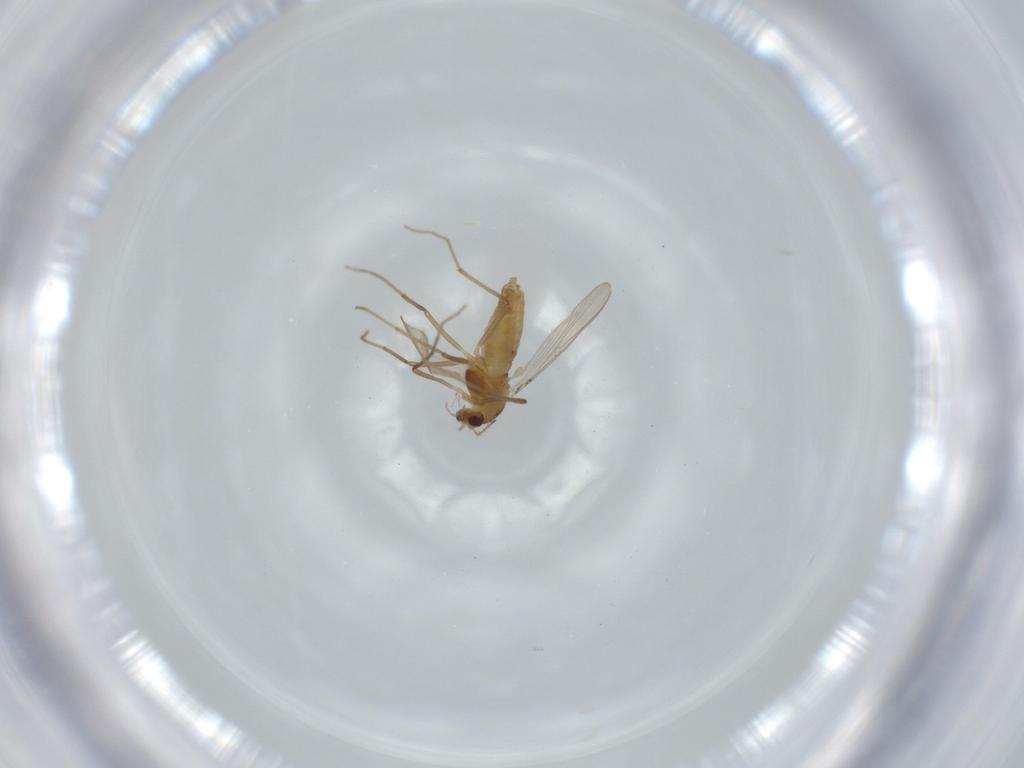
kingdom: Animalia
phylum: Arthropoda
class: Insecta
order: Diptera
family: Chironomidae
